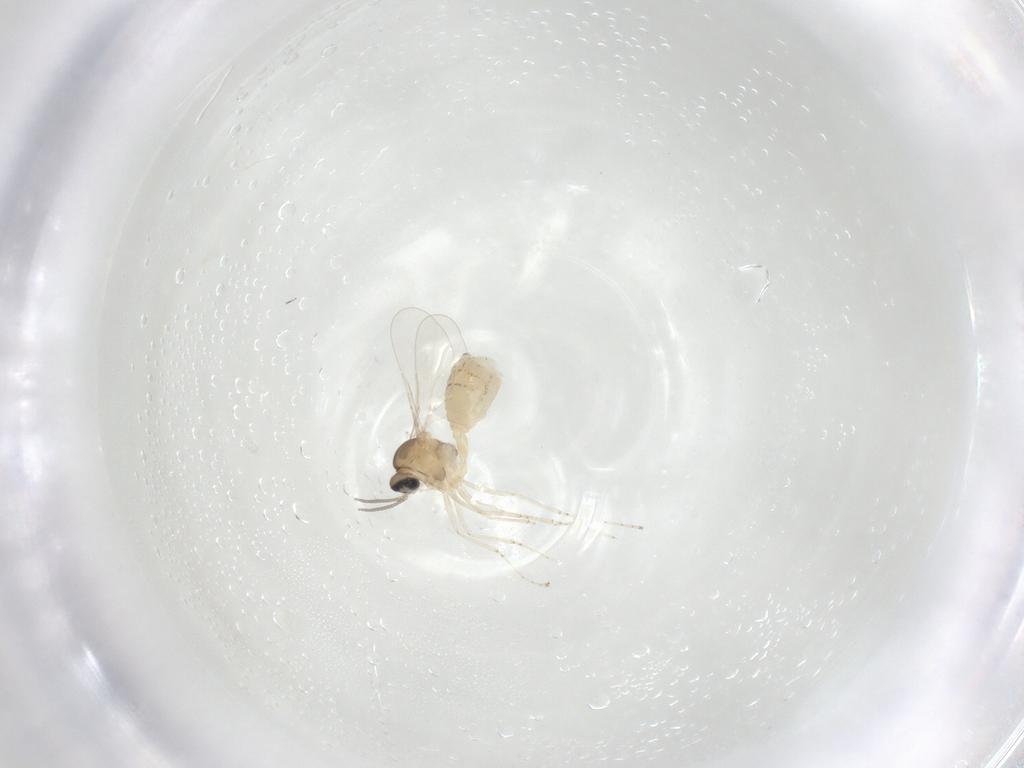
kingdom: Animalia
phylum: Arthropoda
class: Insecta
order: Diptera
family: Cecidomyiidae
